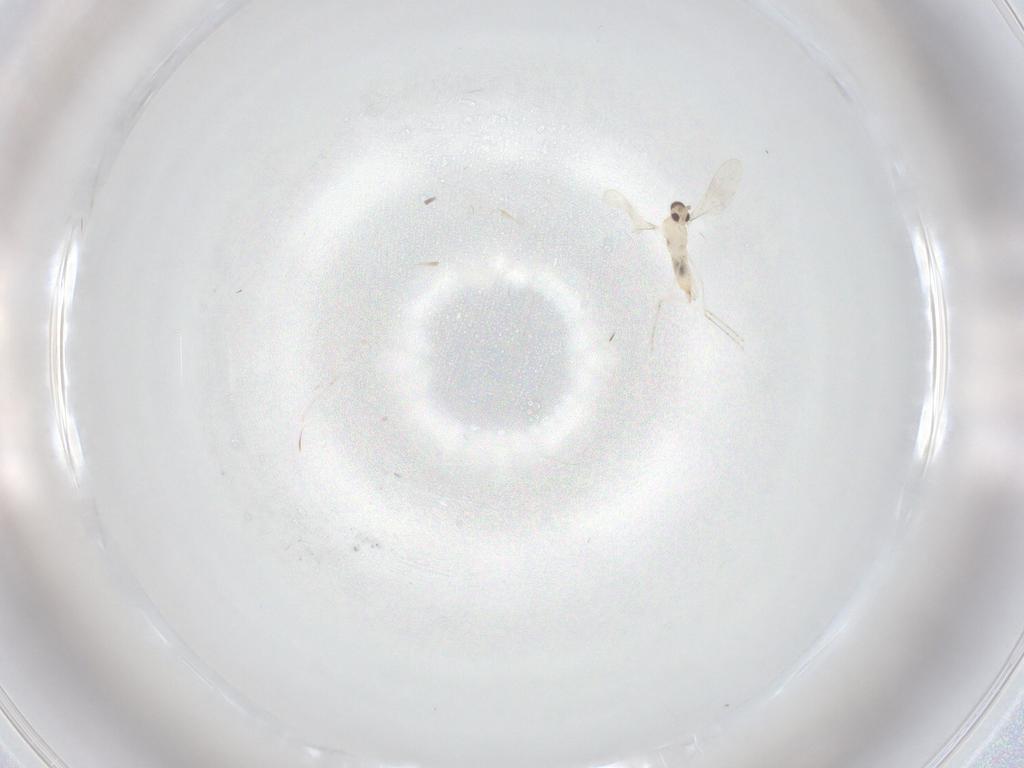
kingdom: Animalia
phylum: Arthropoda
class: Insecta
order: Diptera
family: Cecidomyiidae
